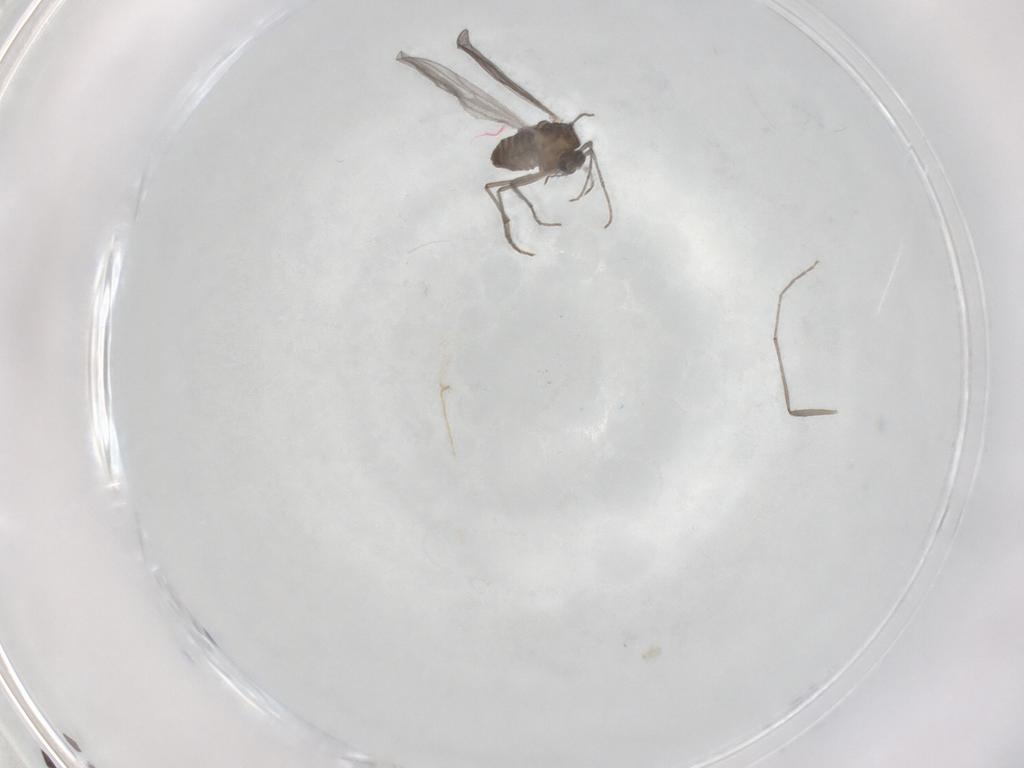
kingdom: Animalia
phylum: Arthropoda
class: Insecta
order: Diptera
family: Phoridae
